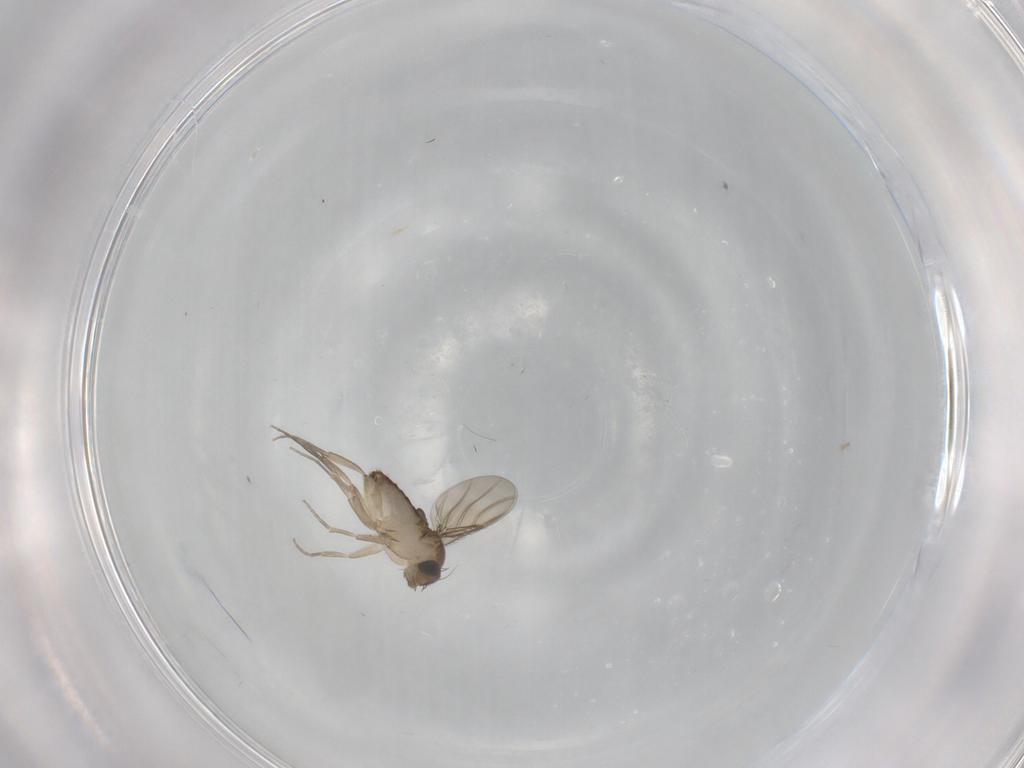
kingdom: Animalia
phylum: Arthropoda
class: Insecta
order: Diptera
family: Phoridae
